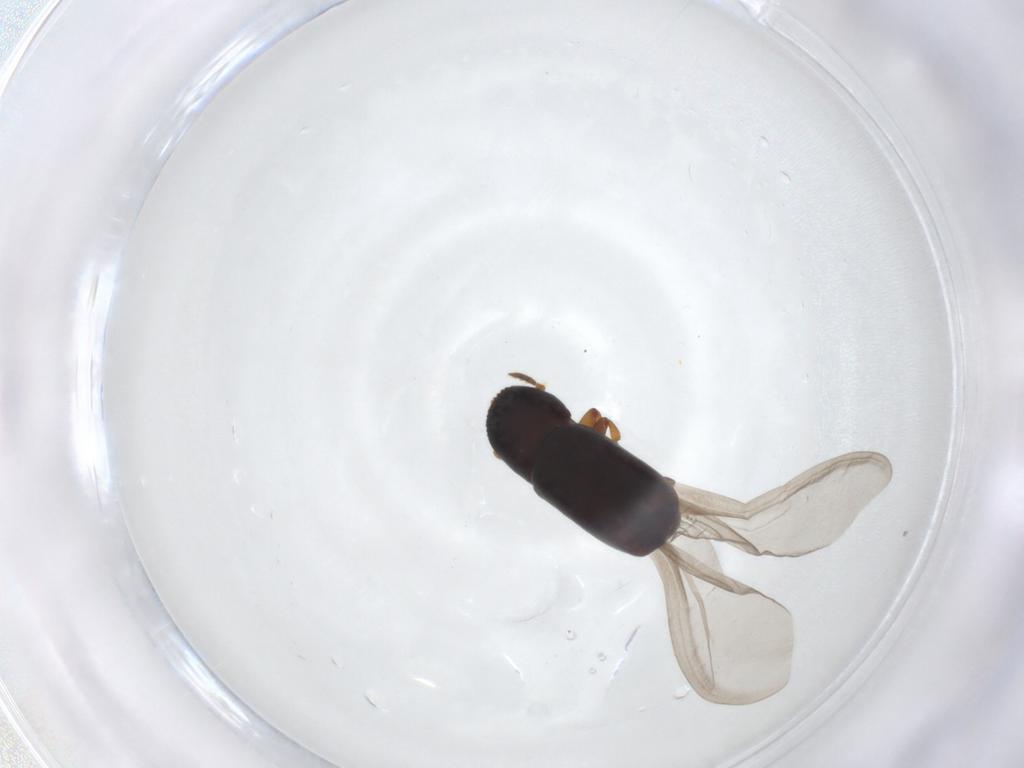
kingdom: Animalia
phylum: Arthropoda
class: Insecta
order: Coleoptera
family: Curculionidae
